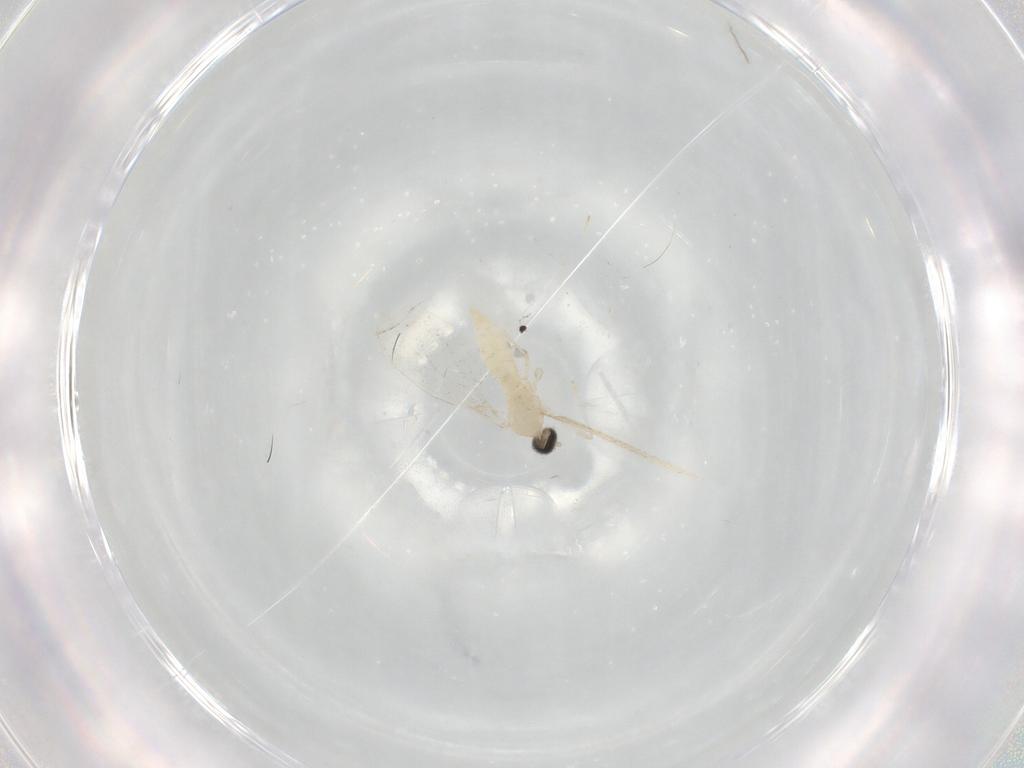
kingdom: Animalia
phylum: Arthropoda
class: Insecta
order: Diptera
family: Cecidomyiidae
